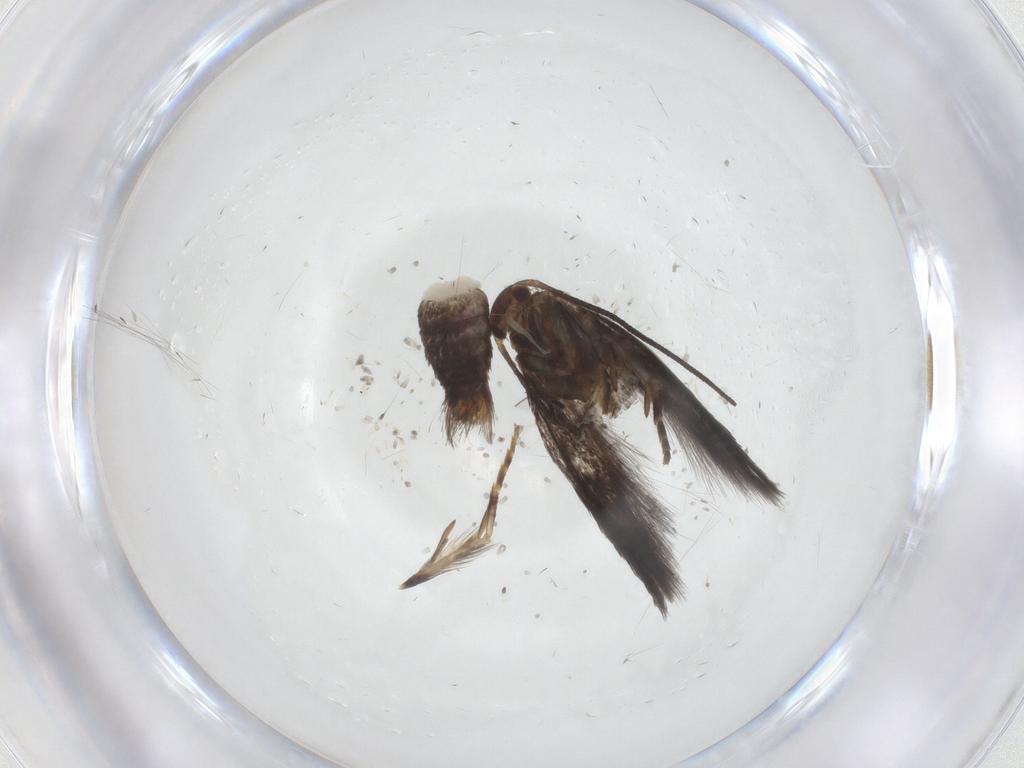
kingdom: Animalia
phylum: Arthropoda
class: Insecta
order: Lepidoptera
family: Elachistidae
